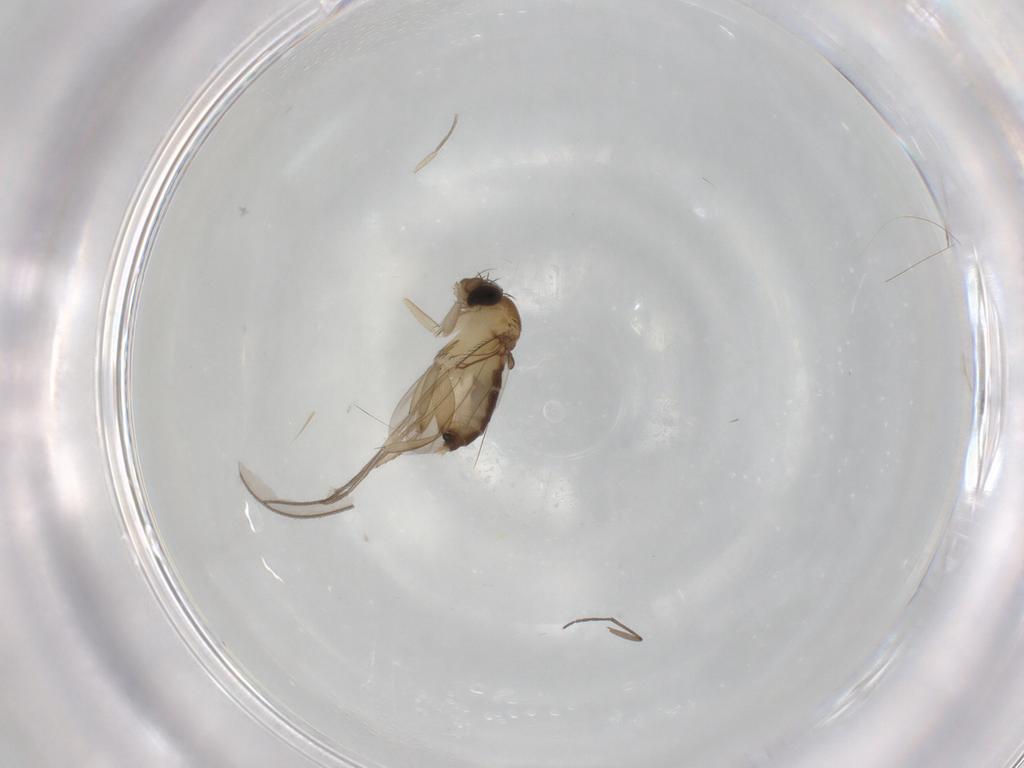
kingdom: Animalia
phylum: Arthropoda
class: Insecta
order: Diptera
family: Phoridae
